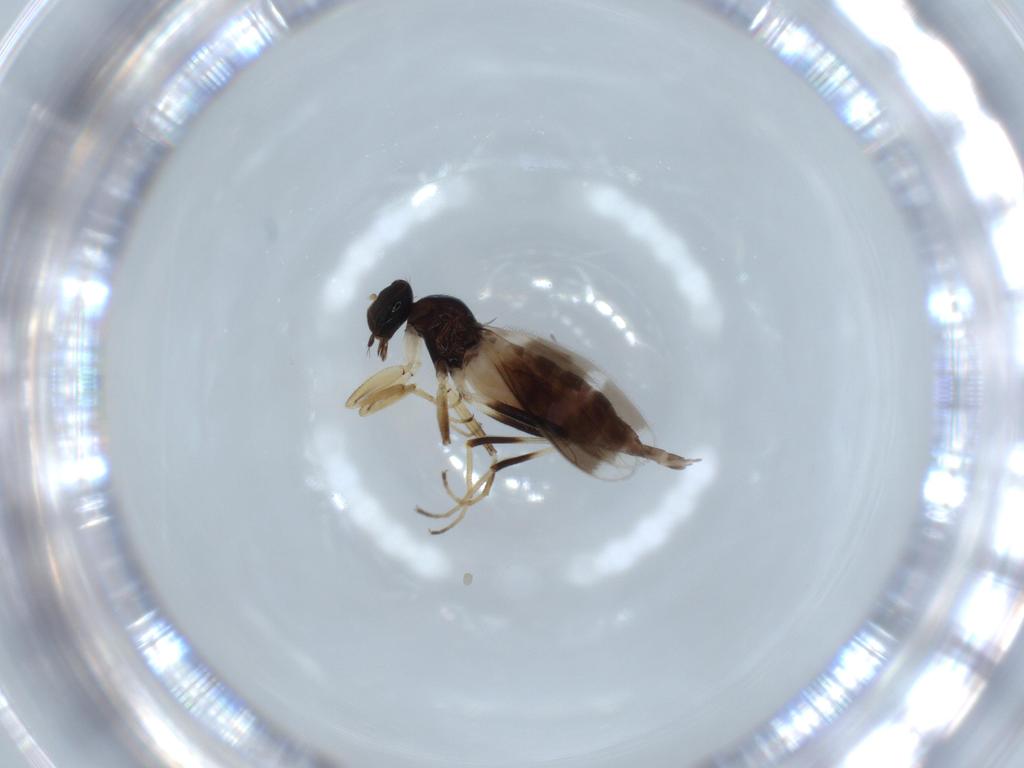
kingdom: Animalia
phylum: Arthropoda
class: Insecta
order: Diptera
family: Hybotidae
